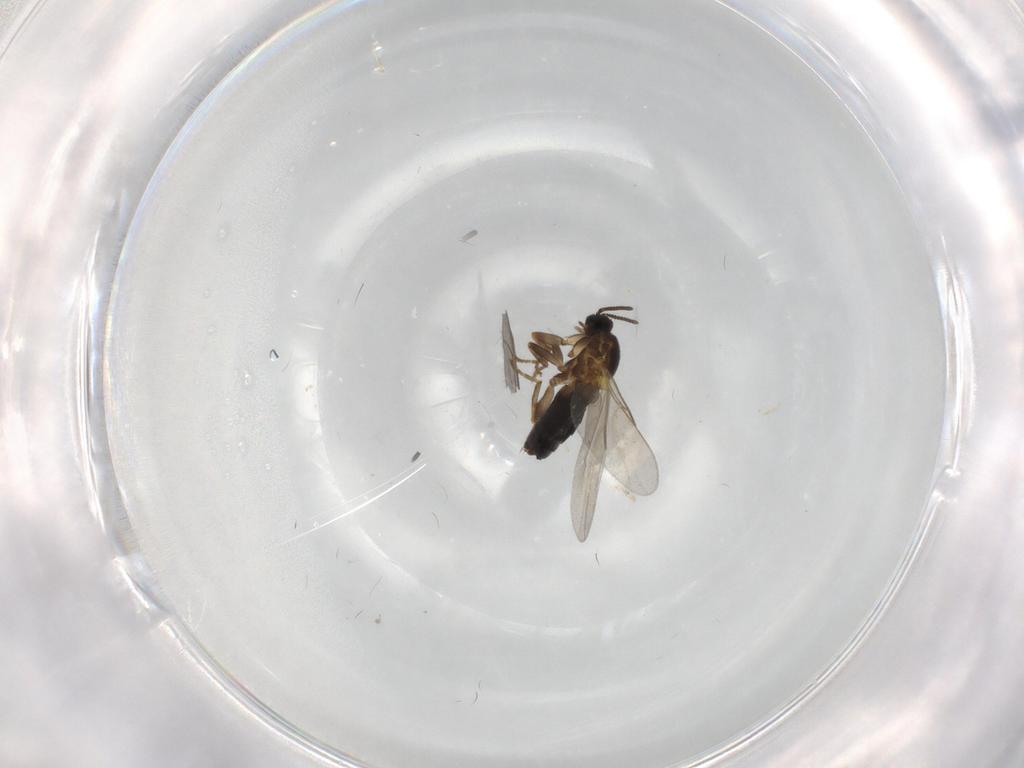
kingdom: Animalia
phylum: Arthropoda
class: Insecta
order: Diptera
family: Scatopsidae
